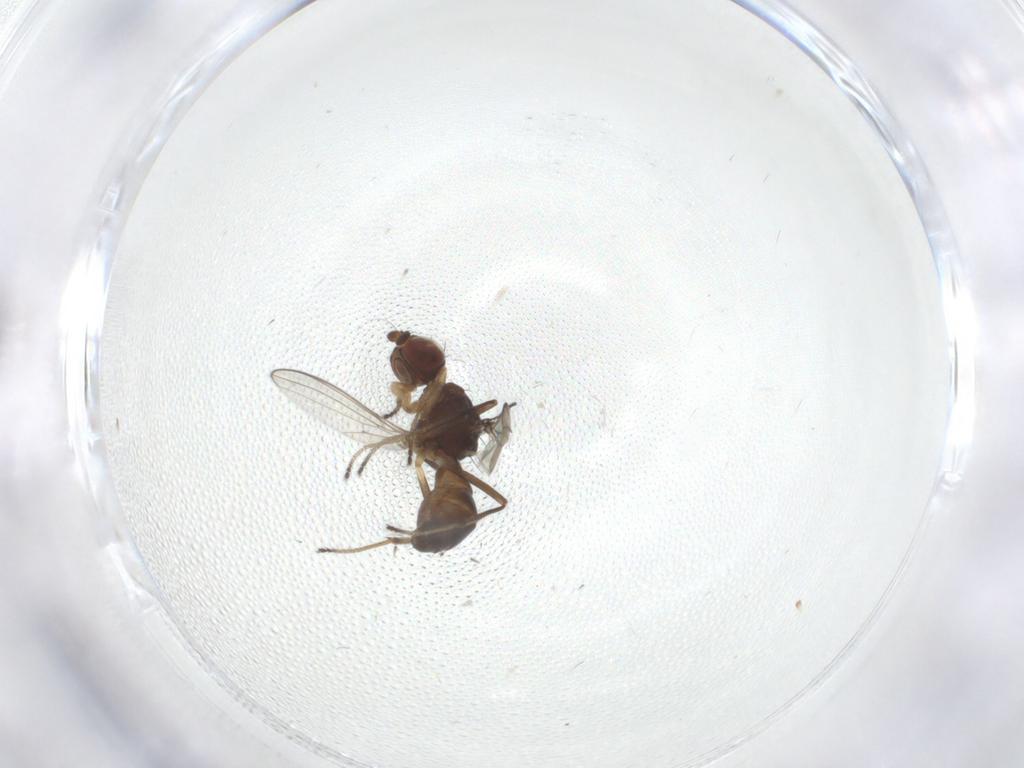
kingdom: Animalia
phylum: Arthropoda
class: Insecta
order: Diptera
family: Sepsidae
